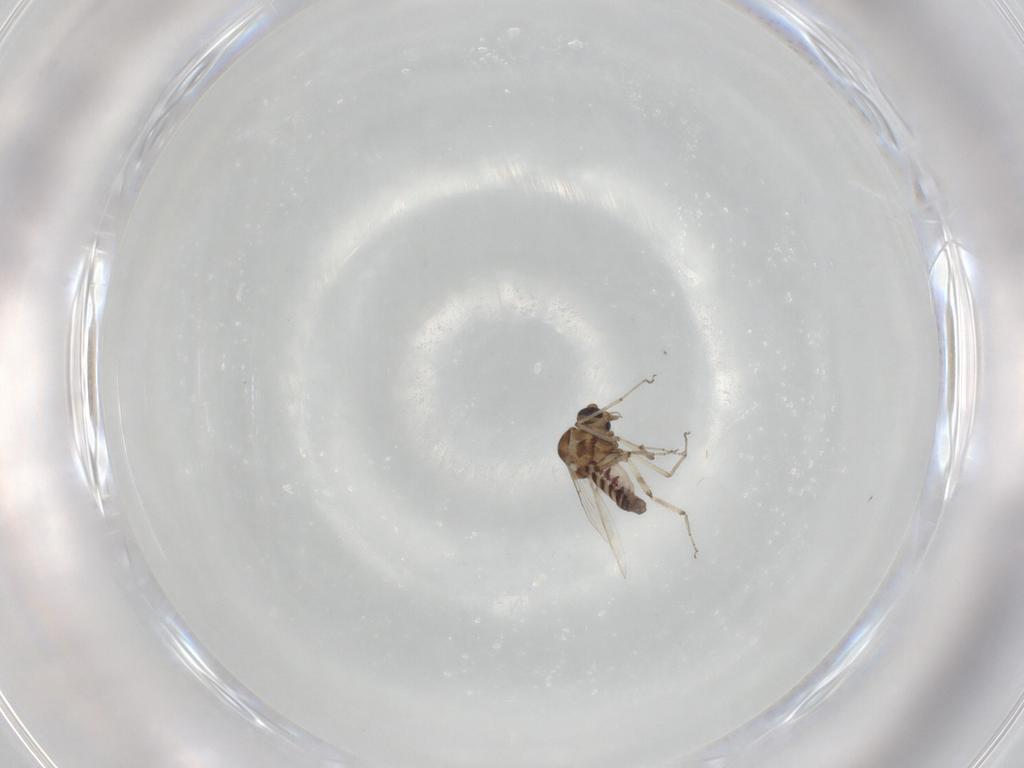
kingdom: Animalia
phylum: Arthropoda
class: Insecta
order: Diptera
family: Ceratopogonidae
